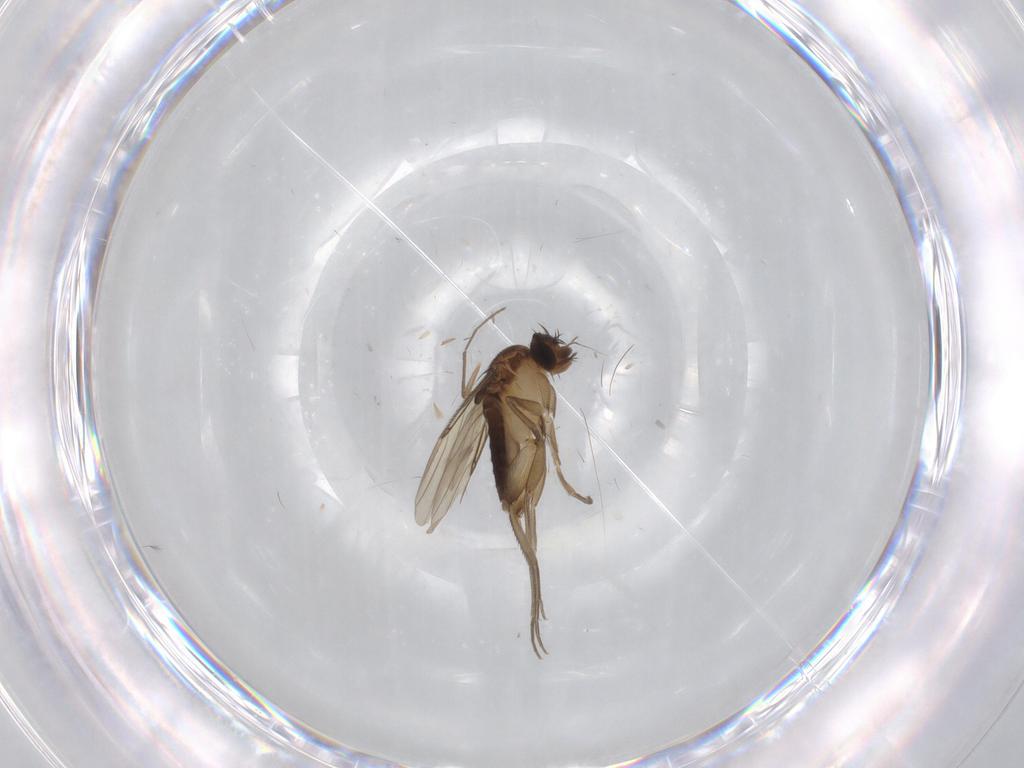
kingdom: Animalia
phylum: Arthropoda
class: Insecta
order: Diptera
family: Phoridae
